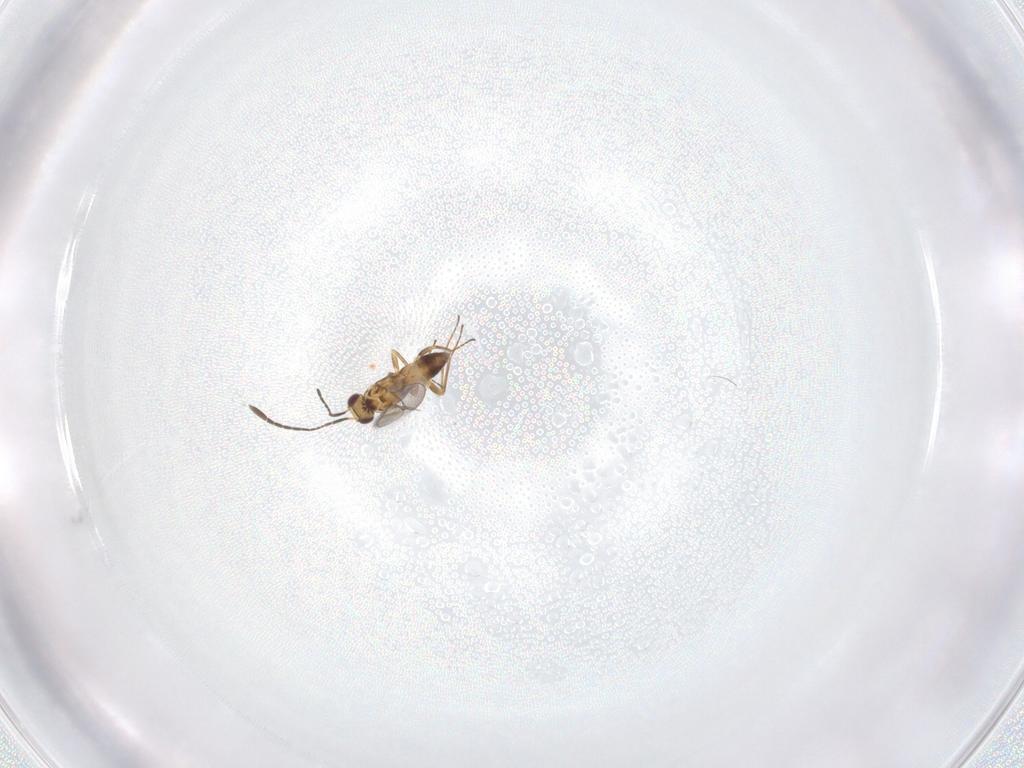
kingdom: Animalia
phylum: Arthropoda
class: Insecta
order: Hymenoptera
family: Mymaridae
